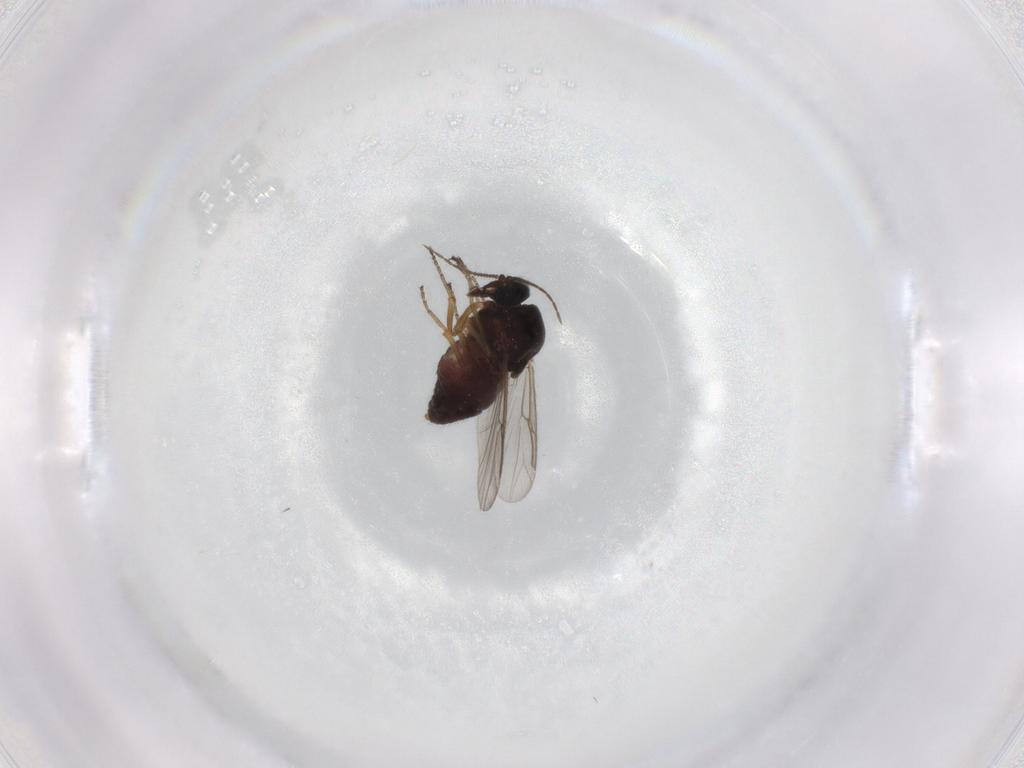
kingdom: Animalia
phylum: Arthropoda
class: Insecta
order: Diptera
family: Ceratopogonidae
